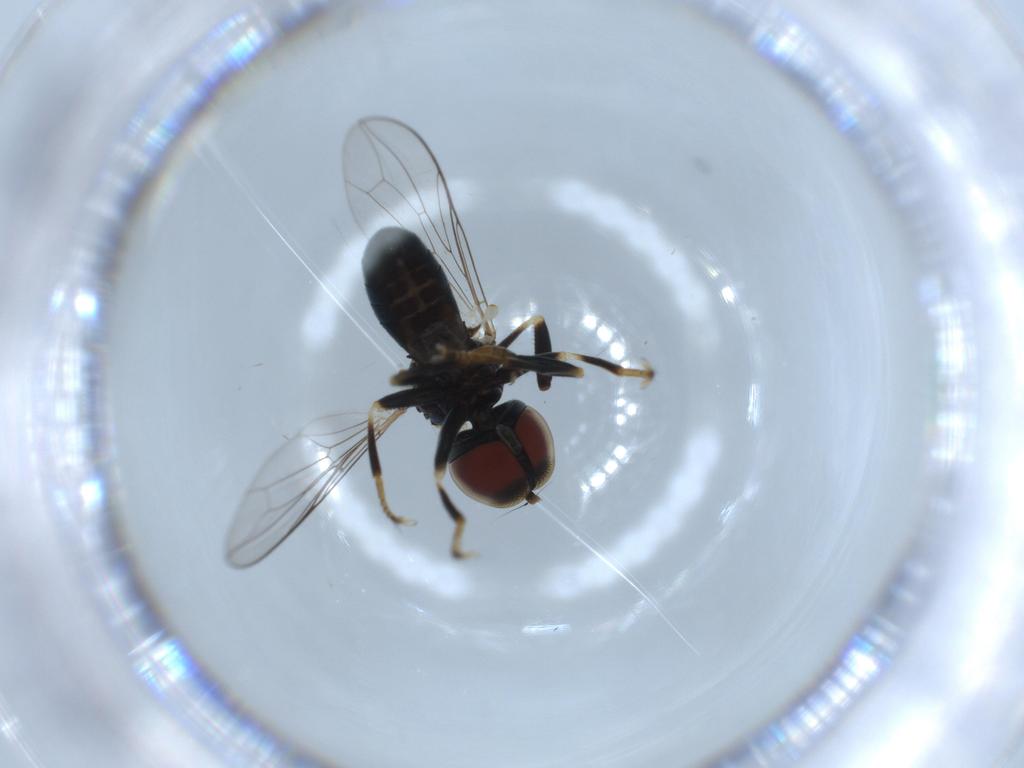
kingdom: Animalia
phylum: Arthropoda
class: Insecta
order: Diptera
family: Pipunculidae
